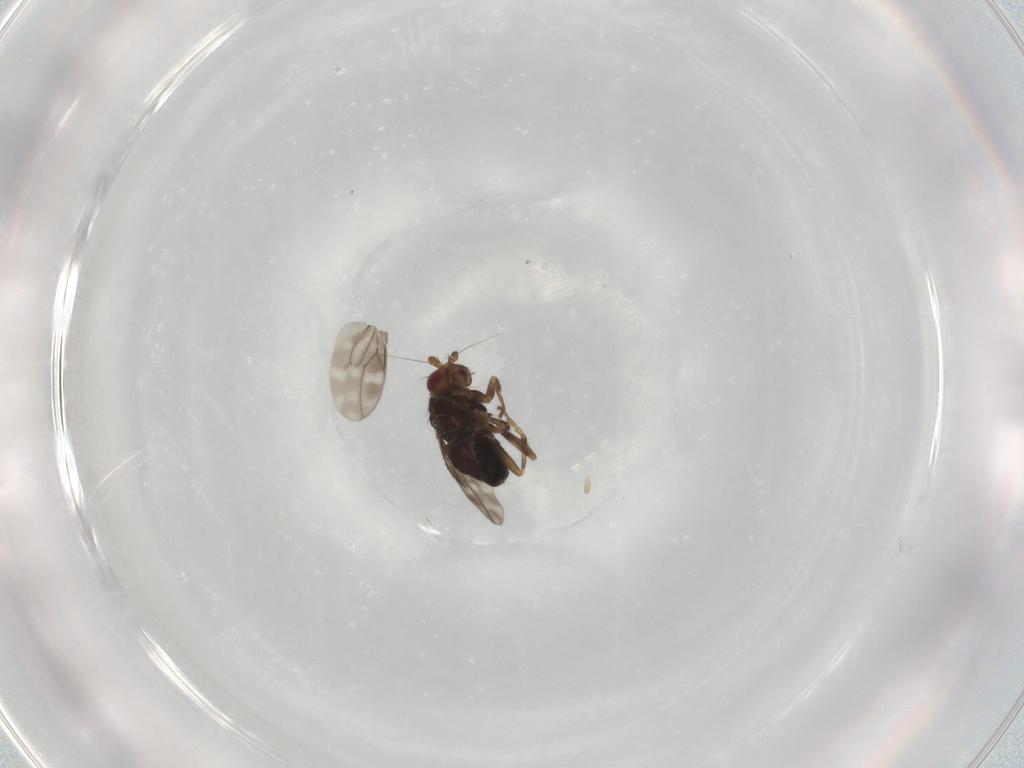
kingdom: Animalia
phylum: Arthropoda
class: Insecta
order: Diptera
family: Sphaeroceridae
